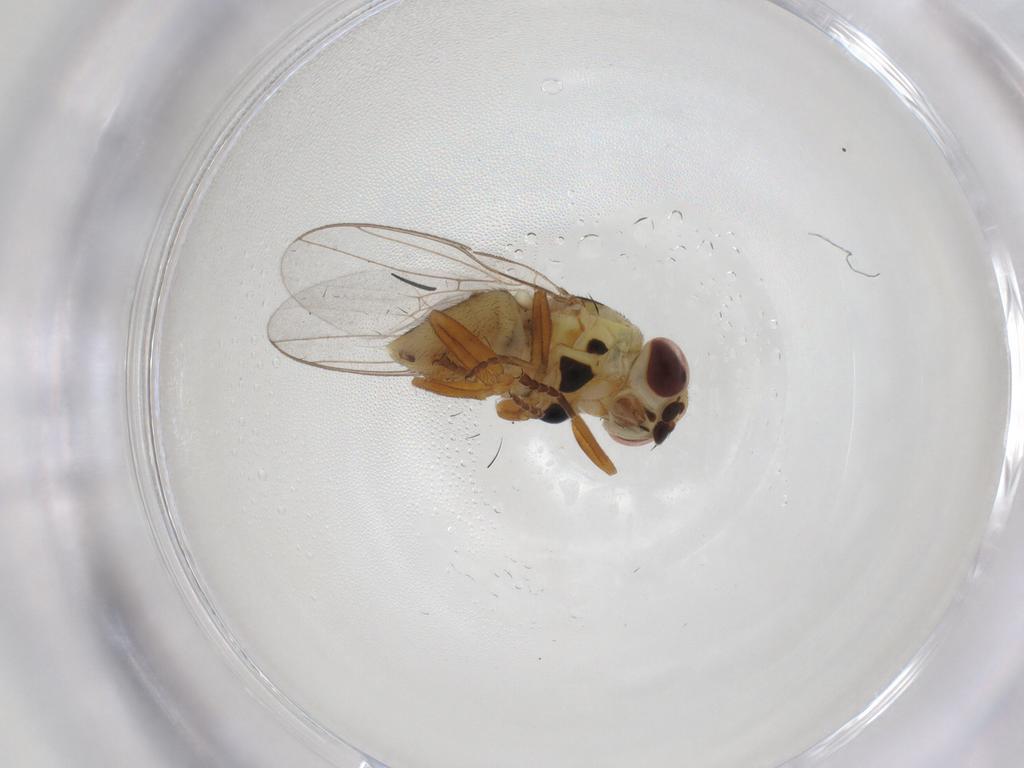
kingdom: Animalia
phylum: Arthropoda
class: Insecta
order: Diptera
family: Chloropidae
